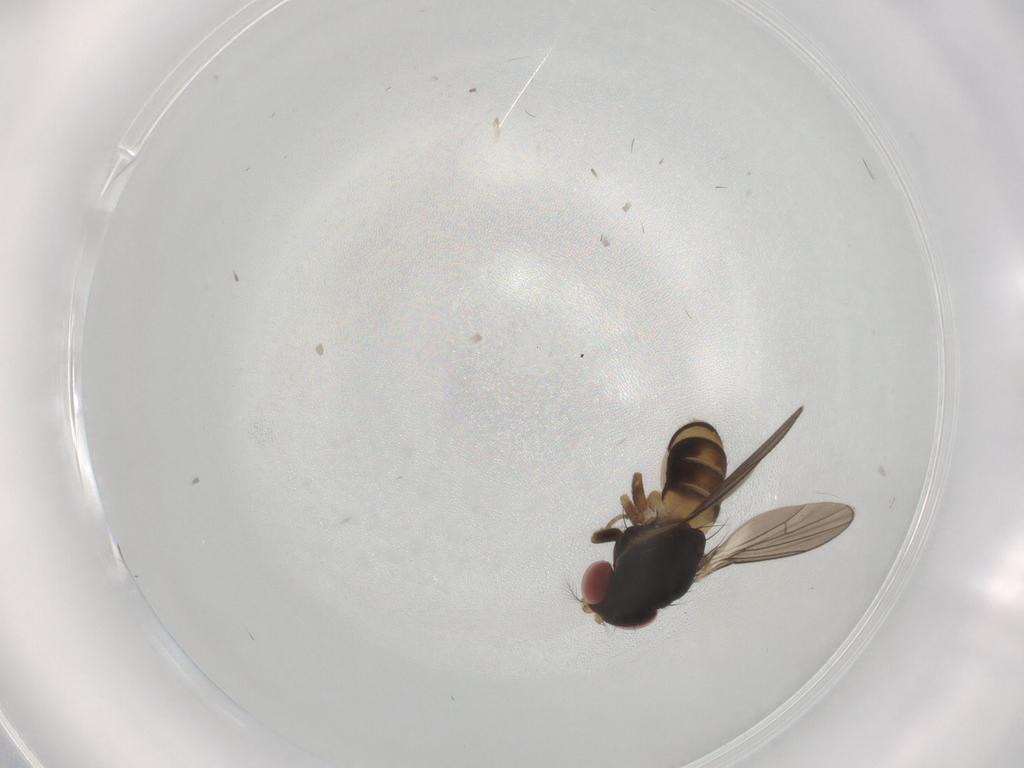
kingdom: Animalia
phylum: Arthropoda
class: Insecta
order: Diptera
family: Drosophilidae
